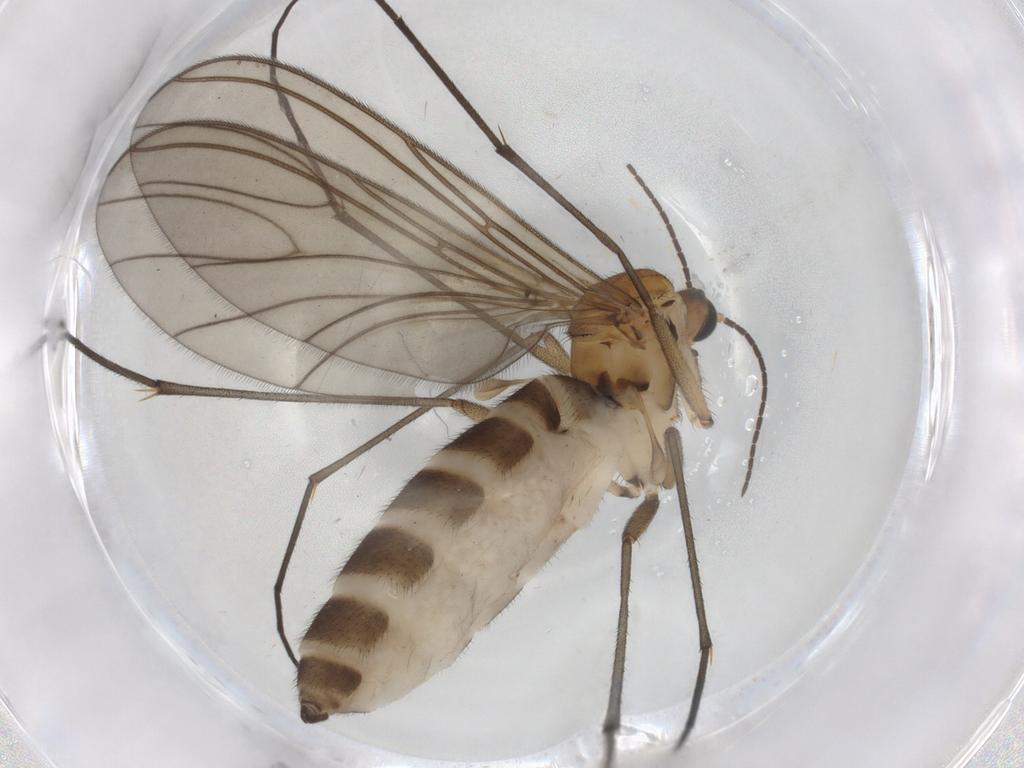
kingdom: Animalia
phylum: Arthropoda
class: Insecta
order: Diptera
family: Sciaridae
